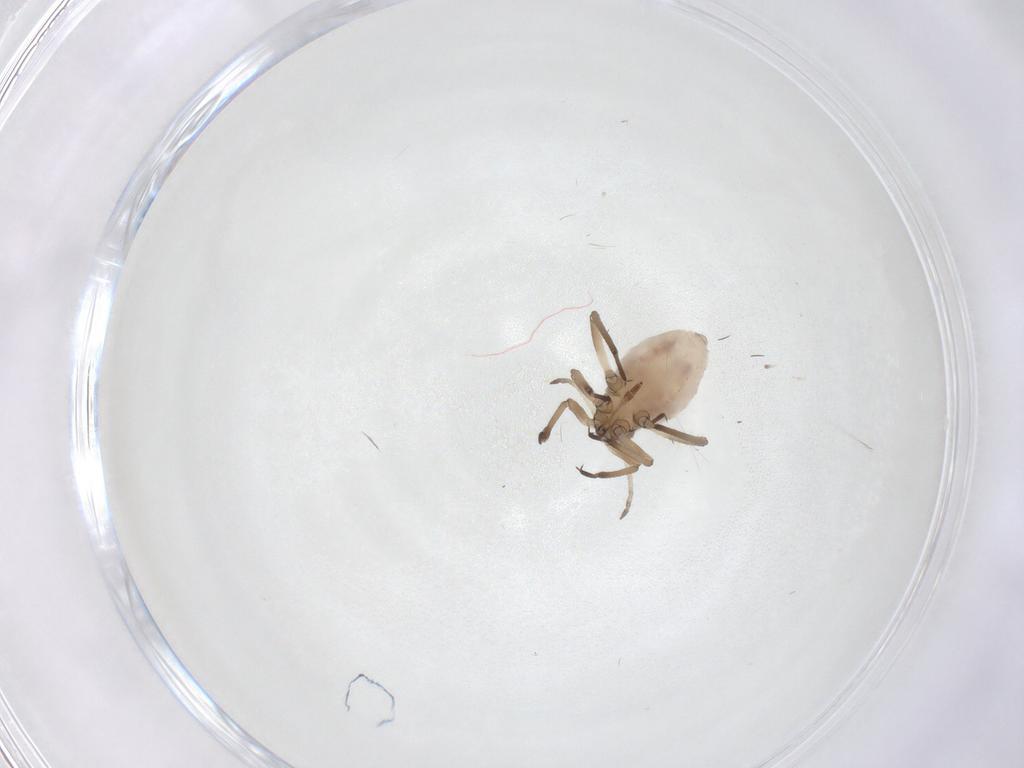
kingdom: Animalia
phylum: Arthropoda
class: Insecta
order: Hemiptera
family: Lachnidae
